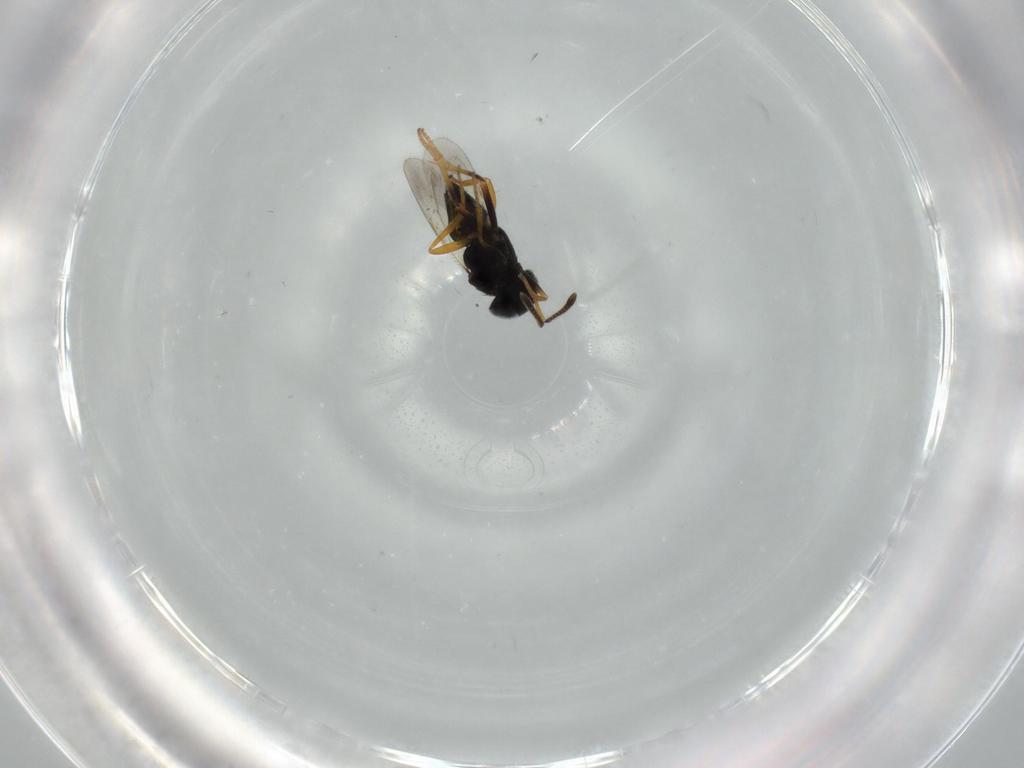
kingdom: Animalia
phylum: Arthropoda
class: Insecta
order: Hymenoptera
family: Encyrtidae
